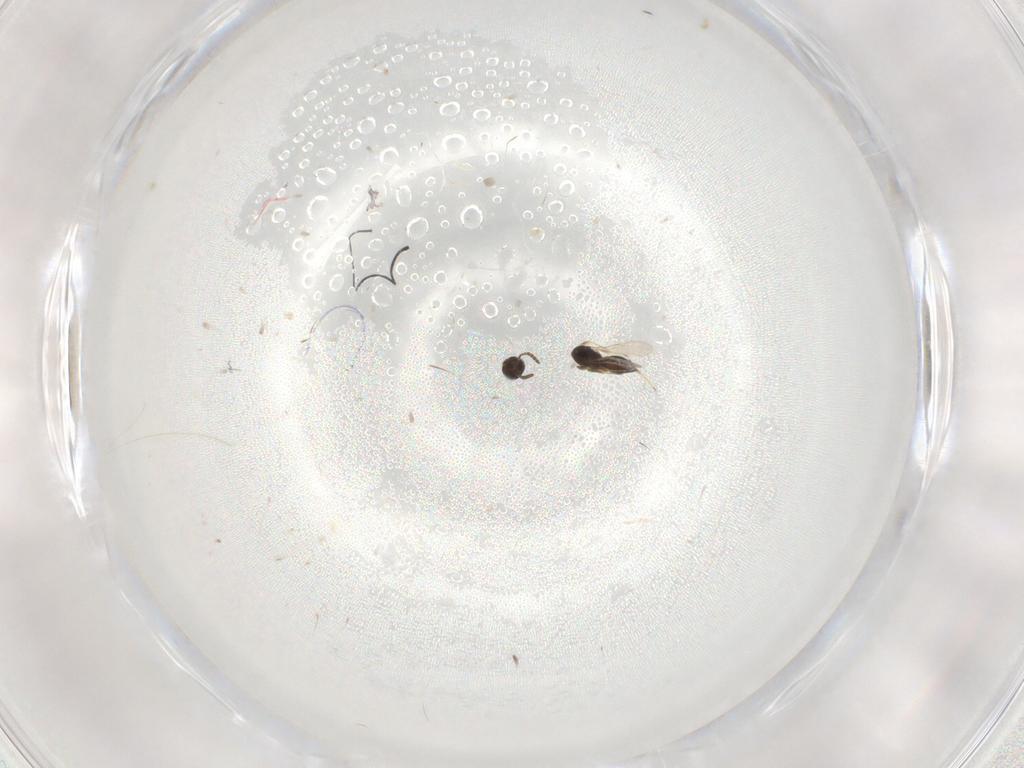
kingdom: Animalia
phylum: Arthropoda
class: Insecta
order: Hymenoptera
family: Scelionidae
